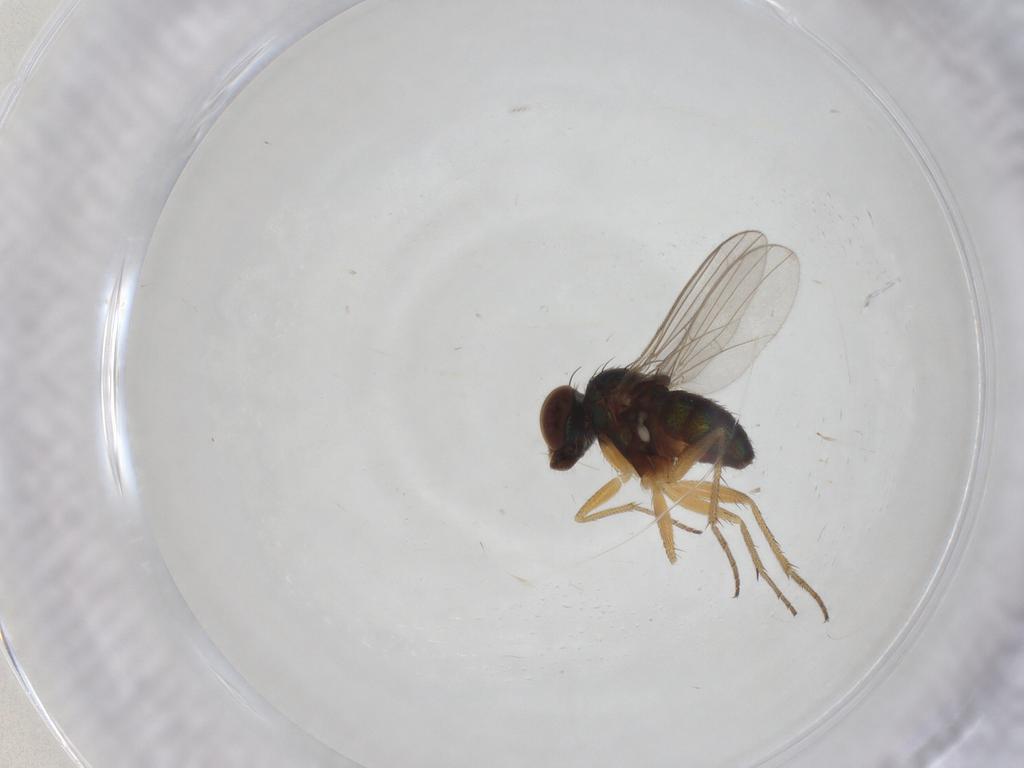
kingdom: Animalia
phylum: Arthropoda
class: Insecta
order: Diptera
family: Dolichopodidae
